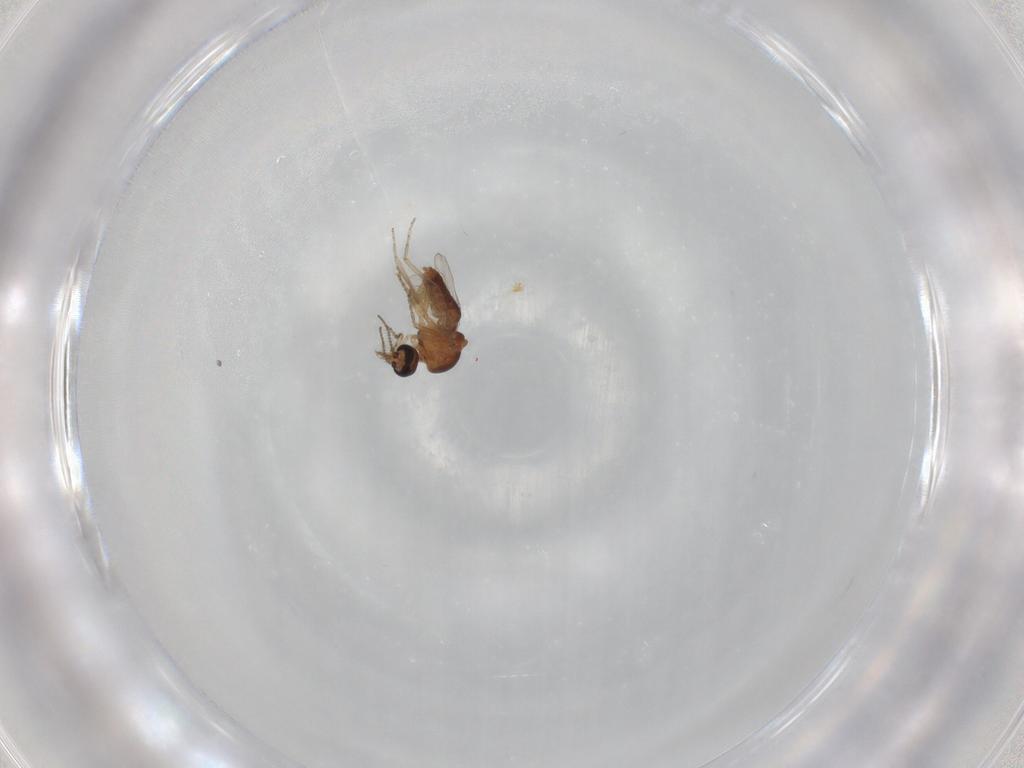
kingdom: Animalia
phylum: Arthropoda
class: Insecta
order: Diptera
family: Ceratopogonidae
